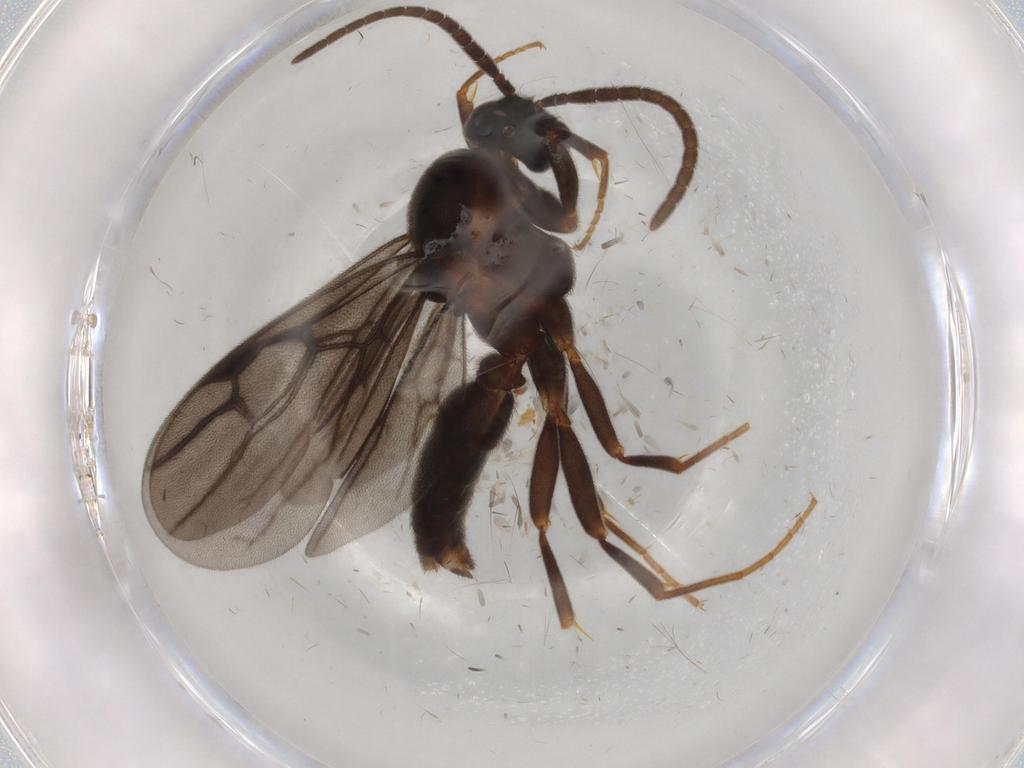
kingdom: Animalia
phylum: Arthropoda
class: Insecta
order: Hymenoptera
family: Formicidae
